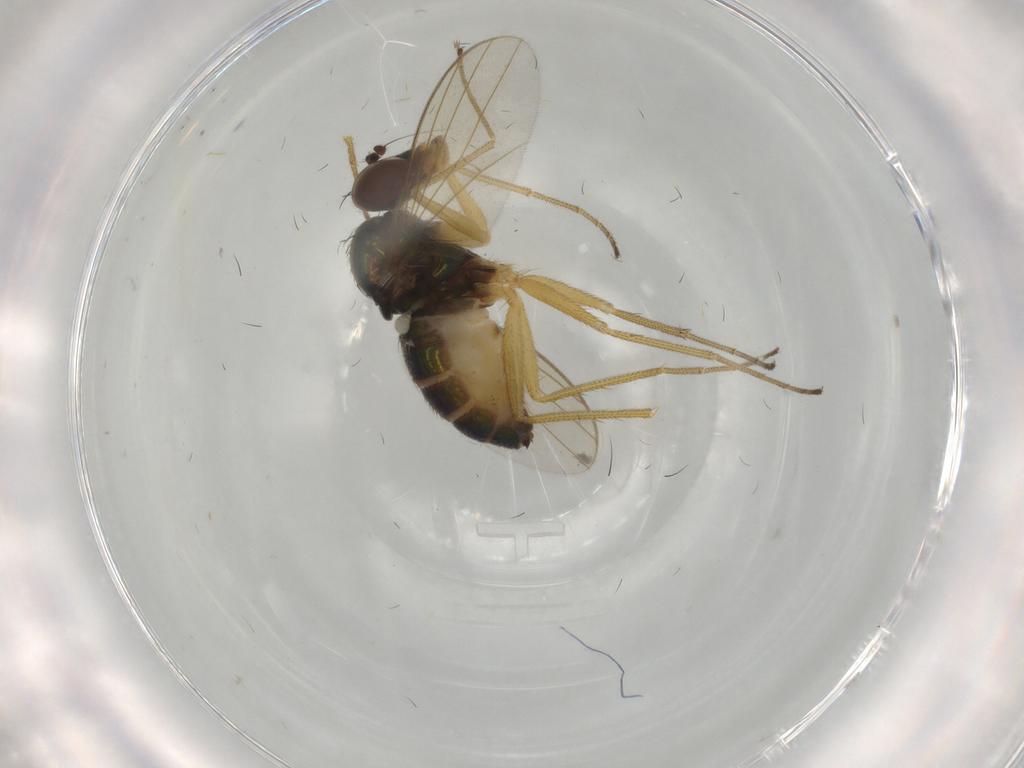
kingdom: Animalia
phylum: Arthropoda
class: Insecta
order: Diptera
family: Dolichopodidae
